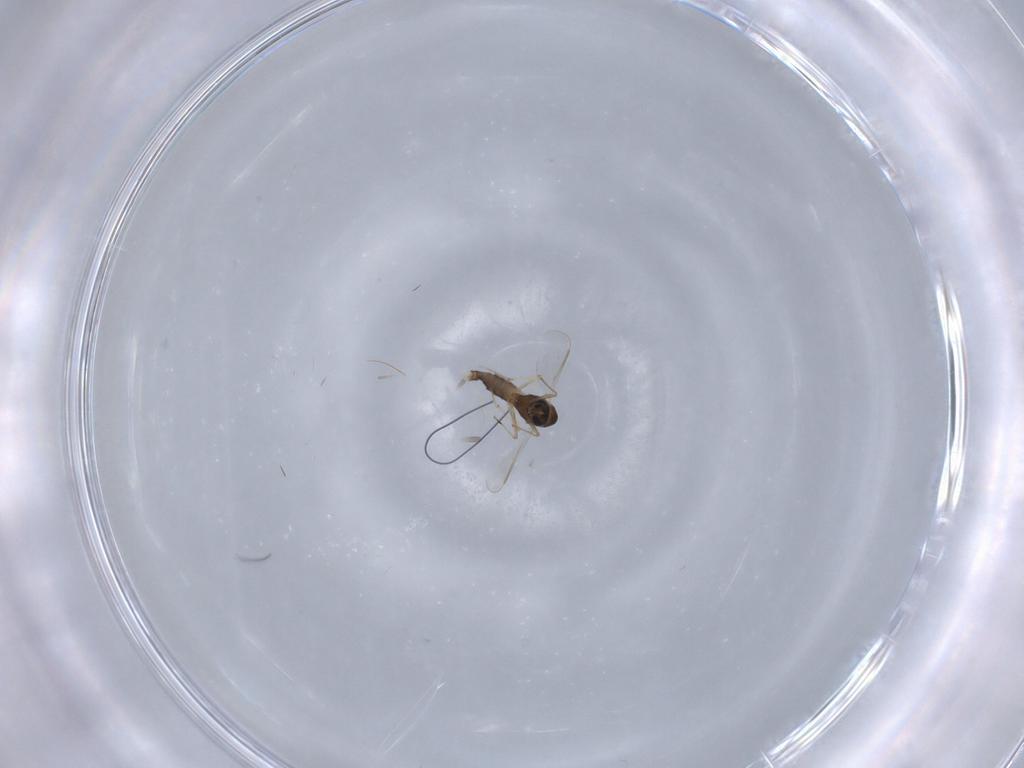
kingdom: Animalia
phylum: Arthropoda
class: Insecta
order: Diptera
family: Chironomidae
